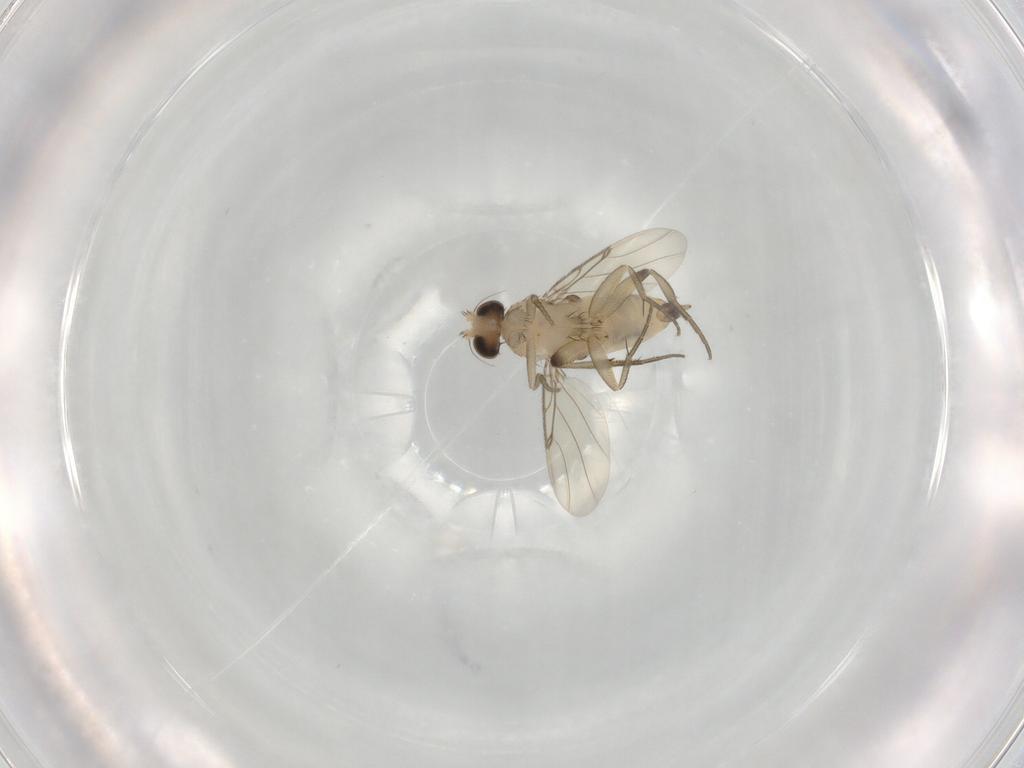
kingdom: Animalia
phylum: Arthropoda
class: Insecta
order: Diptera
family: Phoridae
